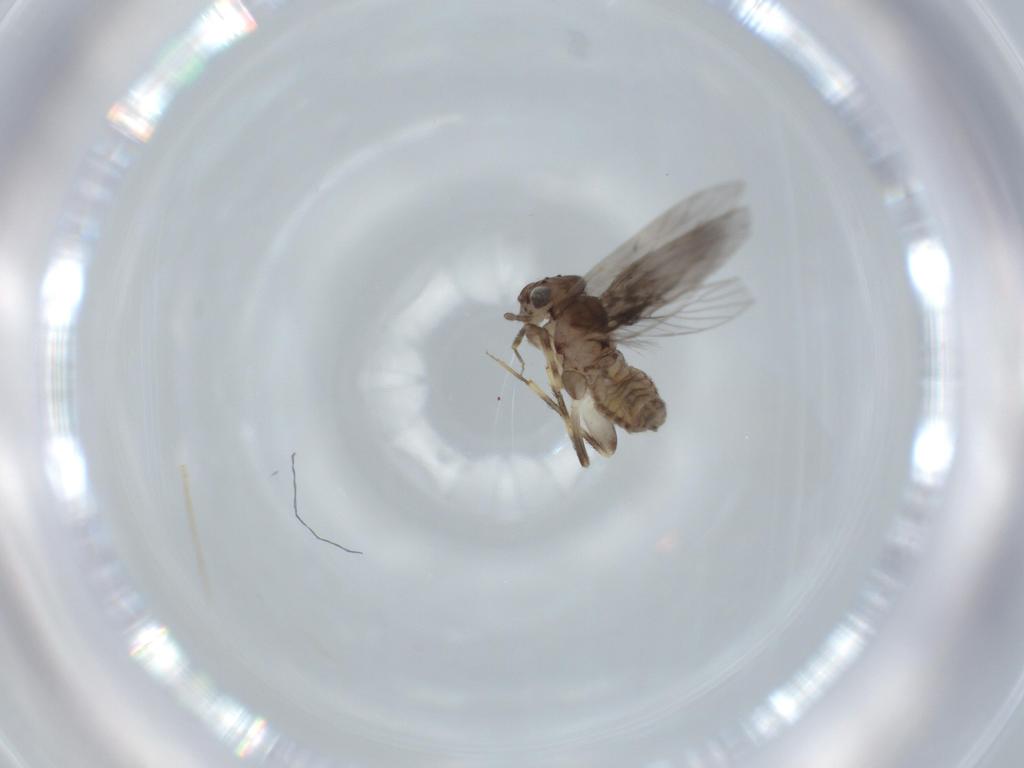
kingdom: Animalia
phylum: Arthropoda
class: Insecta
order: Psocodea
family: Lepidopsocidae
